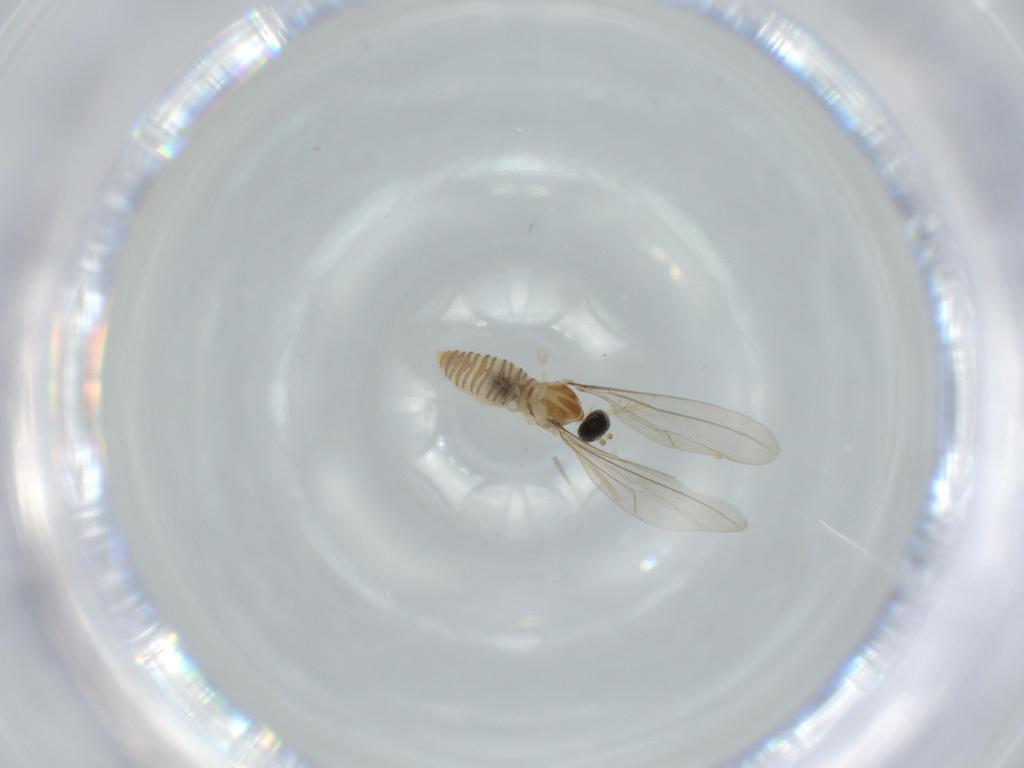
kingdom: Animalia
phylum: Arthropoda
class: Insecta
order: Diptera
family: Cecidomyiidae
